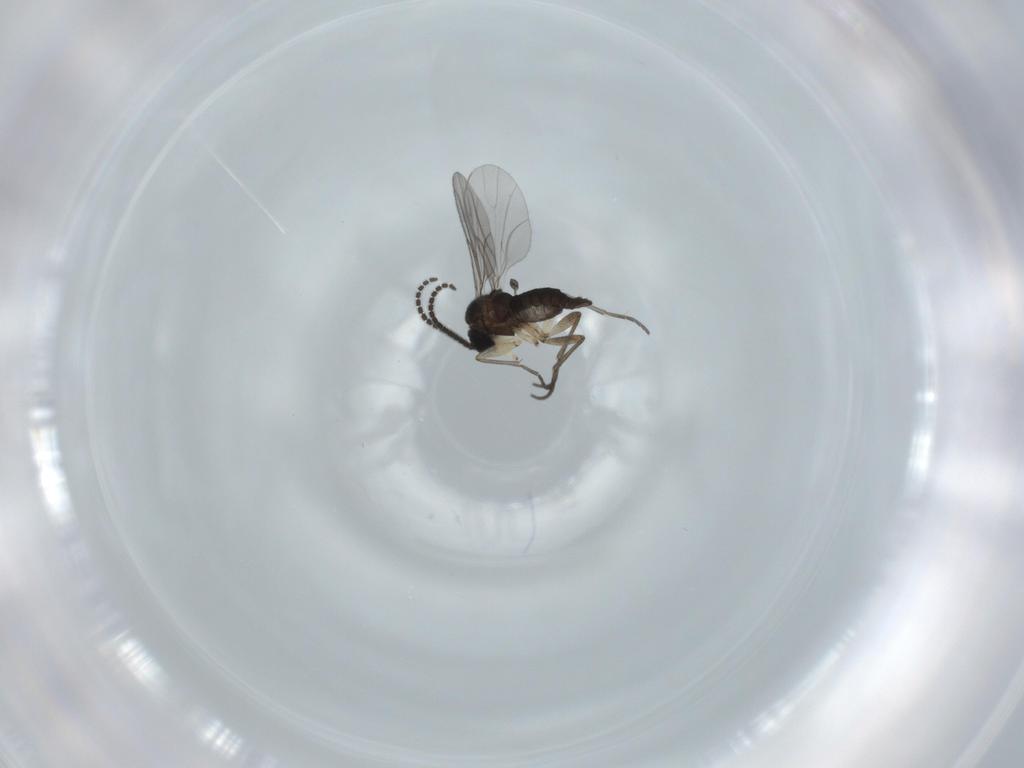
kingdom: Animalia
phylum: Arthropoda
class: Insecta
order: Diptera
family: Sciaridae
